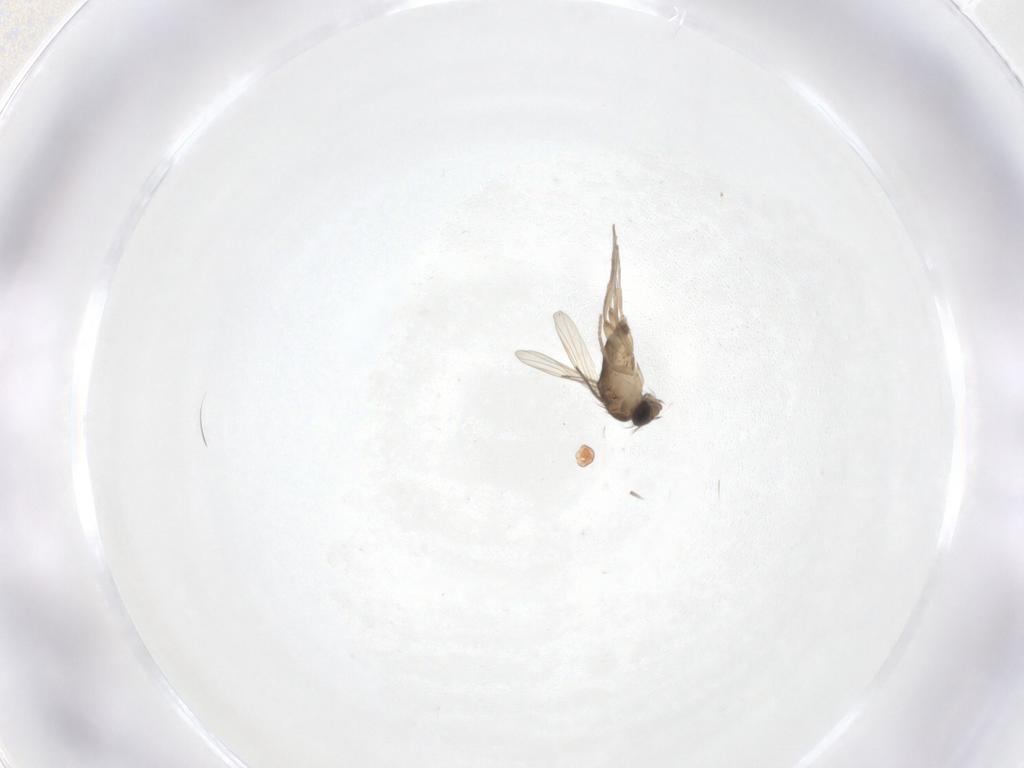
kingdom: Animalia
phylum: Arthropoda
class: Insecta
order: Diptera
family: Phoridae
